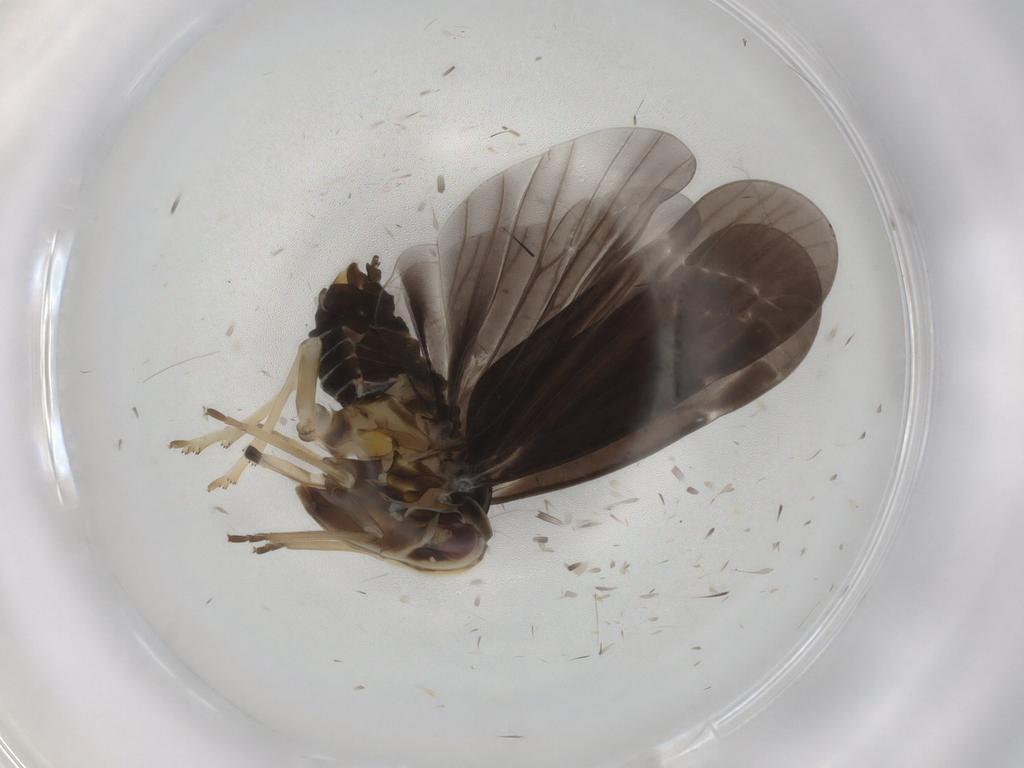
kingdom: Animalia
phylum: Arthropoda
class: Insecta
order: Hemiptera
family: Derbidae
